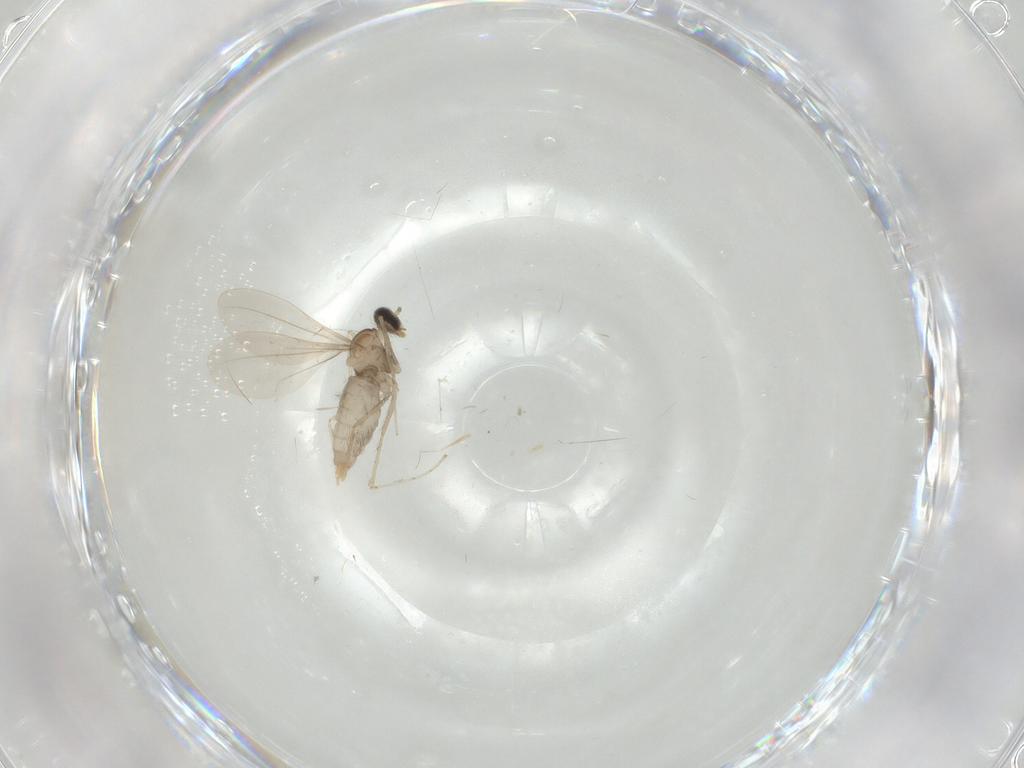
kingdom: Animalia
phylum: Arthropoda
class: Insecta
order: Diptera
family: Cecidomyiidae
